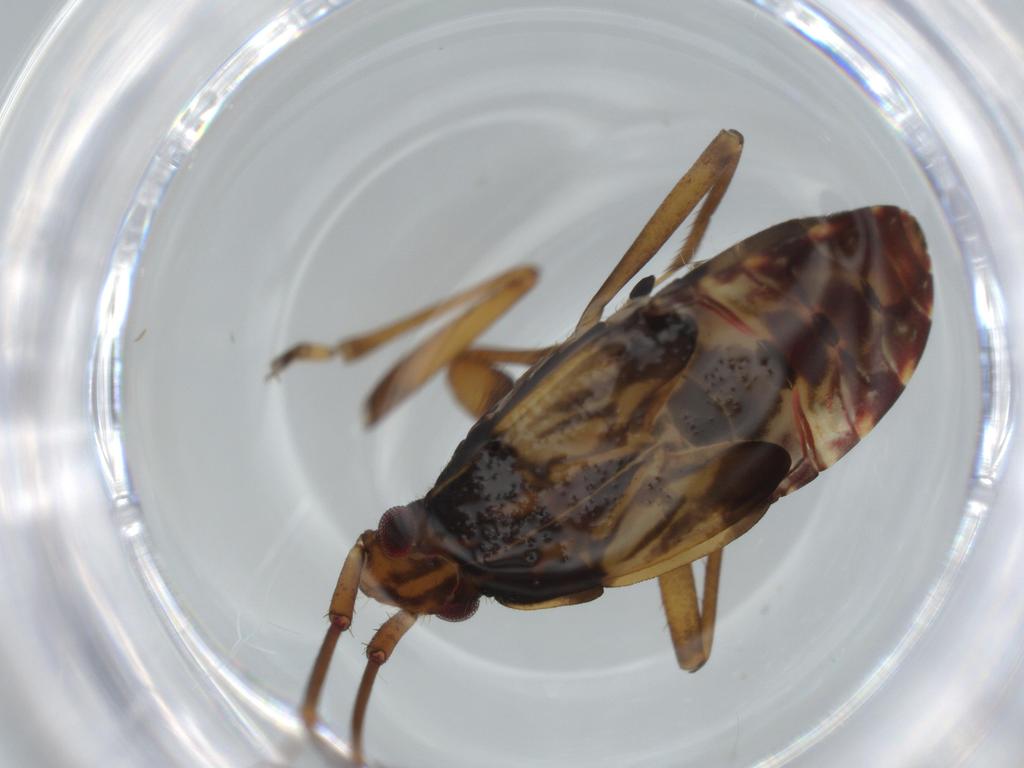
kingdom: Animalia
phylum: Arthropoda
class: Insecta
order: Hemiptera
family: Rhyparochromidae
